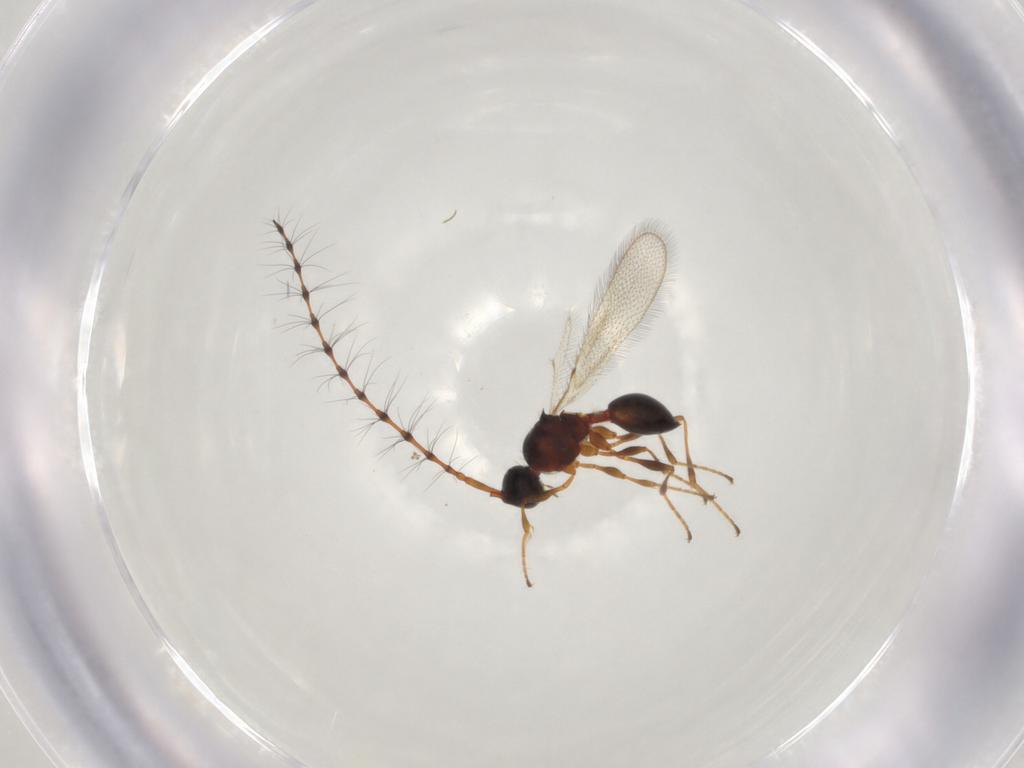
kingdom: Animalia
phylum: Arthropoda
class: Insecta
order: Hymenoptera
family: Diapriidae
